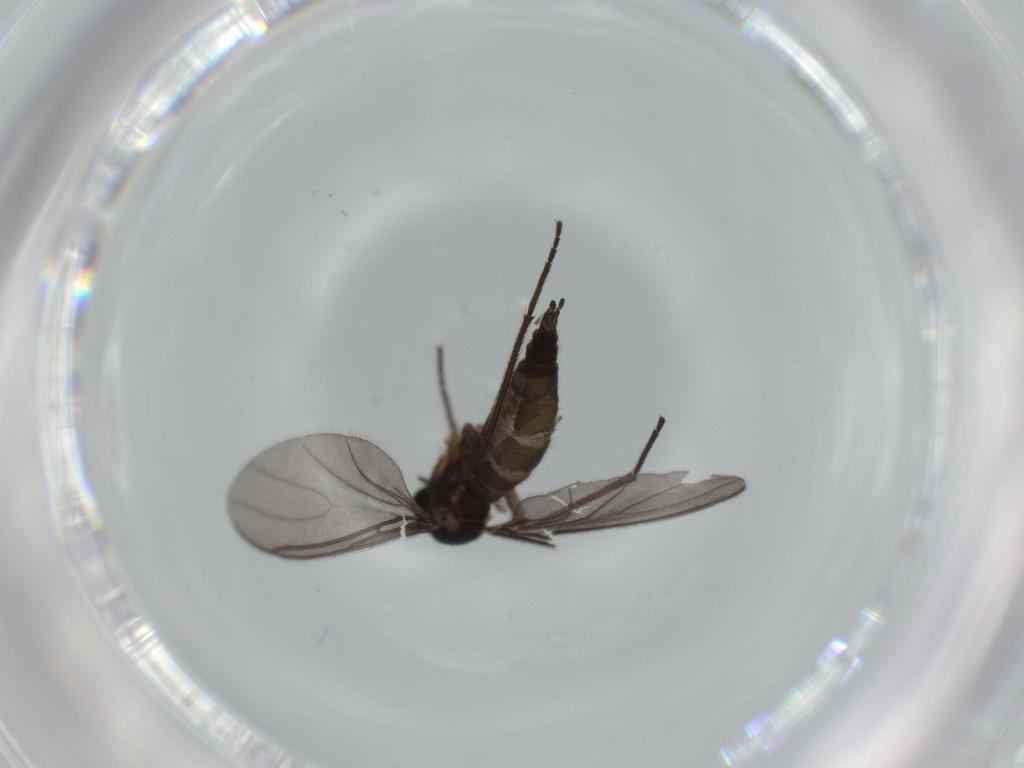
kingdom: Animalia
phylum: Arthropoda
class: Insecta
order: Diptera
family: Sciaridae
